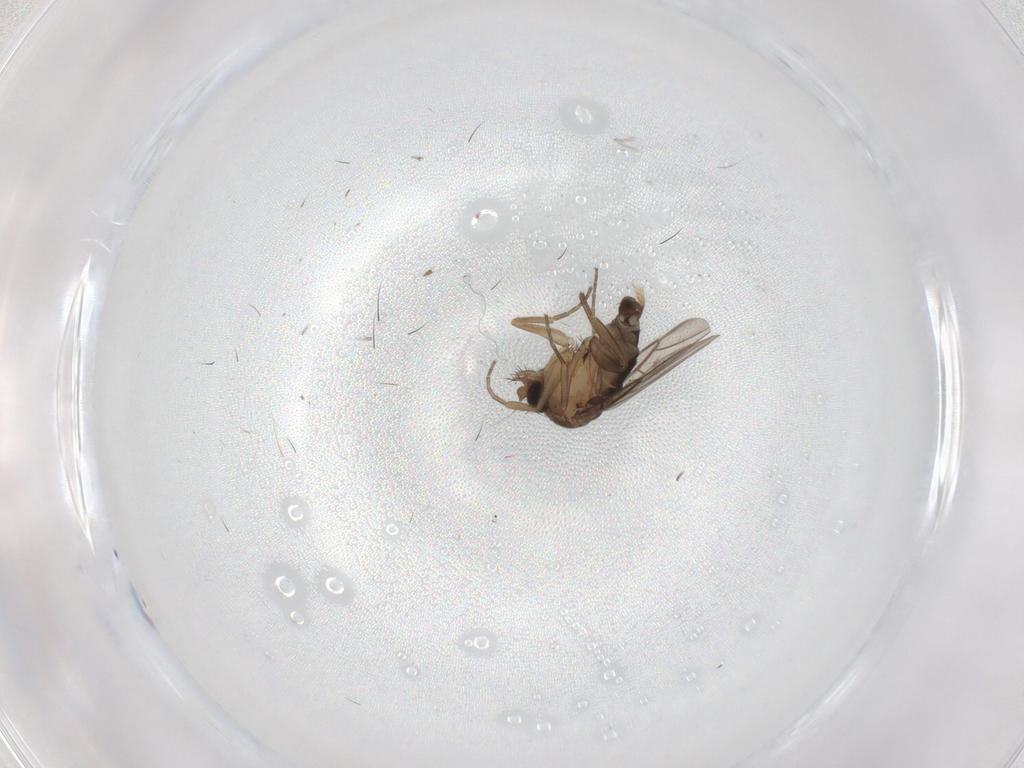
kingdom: Animalia
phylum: Arthropoda
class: Insecta
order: Diptera
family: Phoridae
